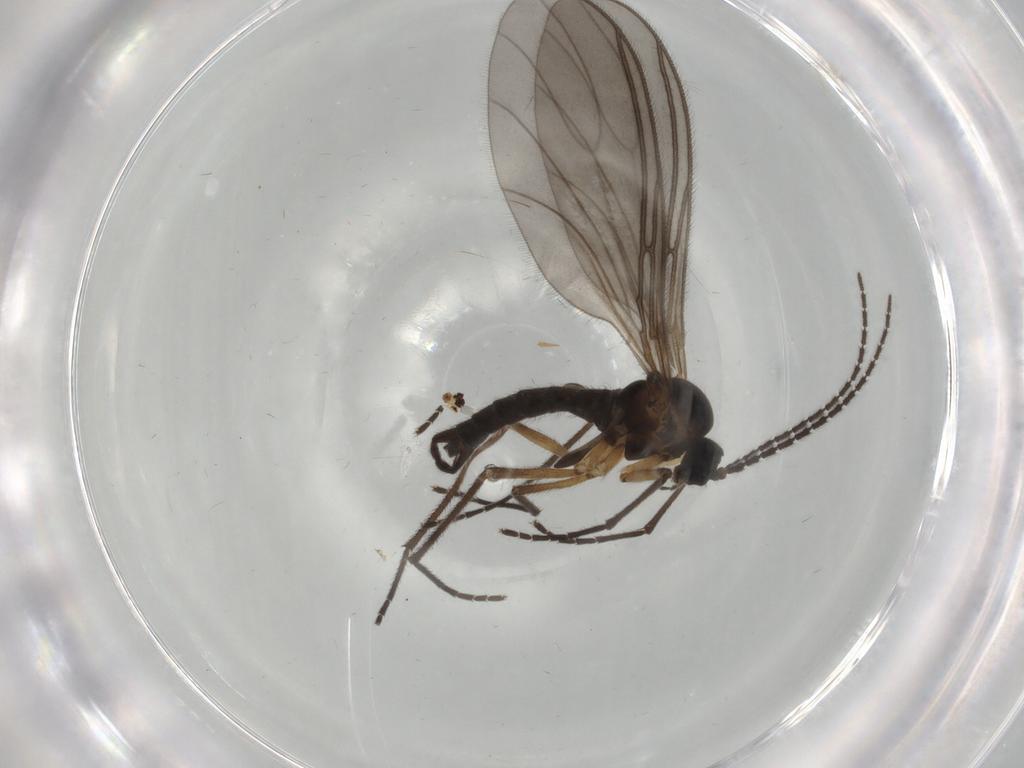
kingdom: Animalia
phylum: Arthropoda
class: Insecta
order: Diptera
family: Sciaridae
